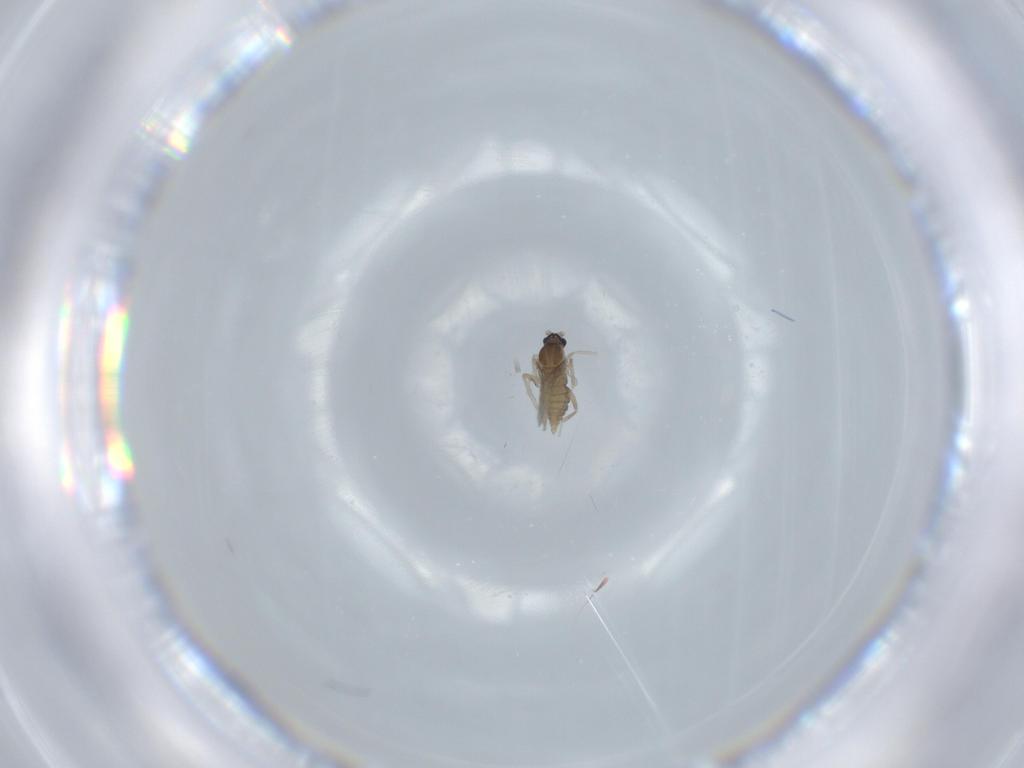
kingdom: Animalia
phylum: Arthropoda
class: Insecta
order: Diptera
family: Cecidomyiidae
